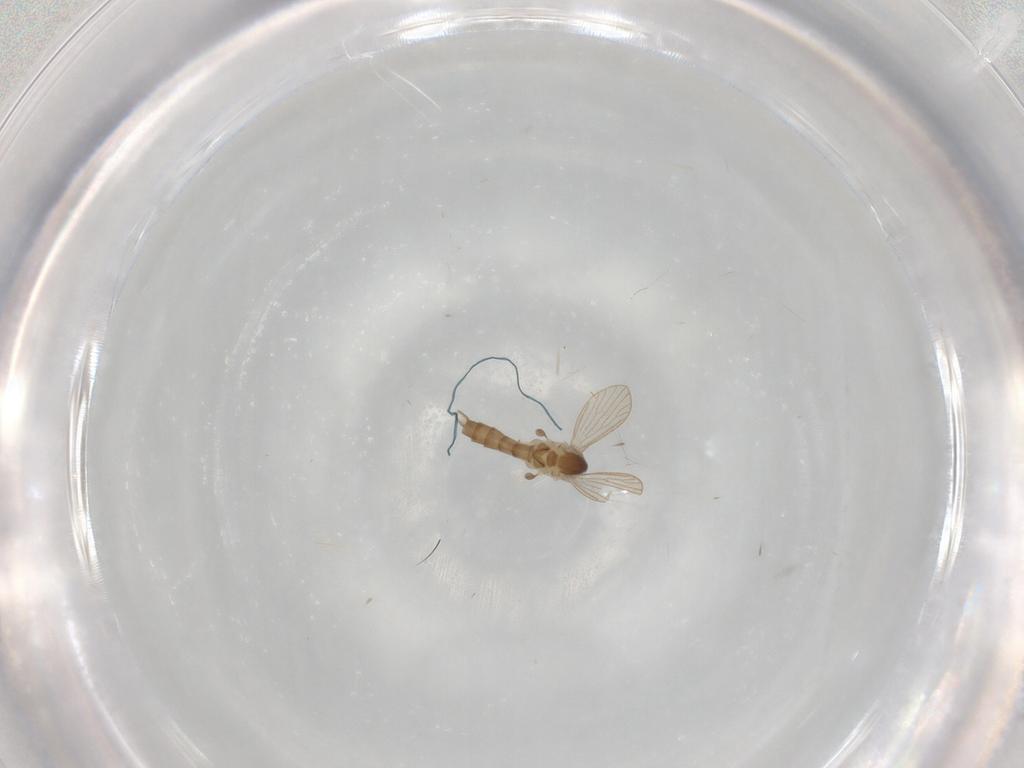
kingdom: Animalia
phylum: Arthropoda
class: Insecta
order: Diptera
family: Psychodidae
